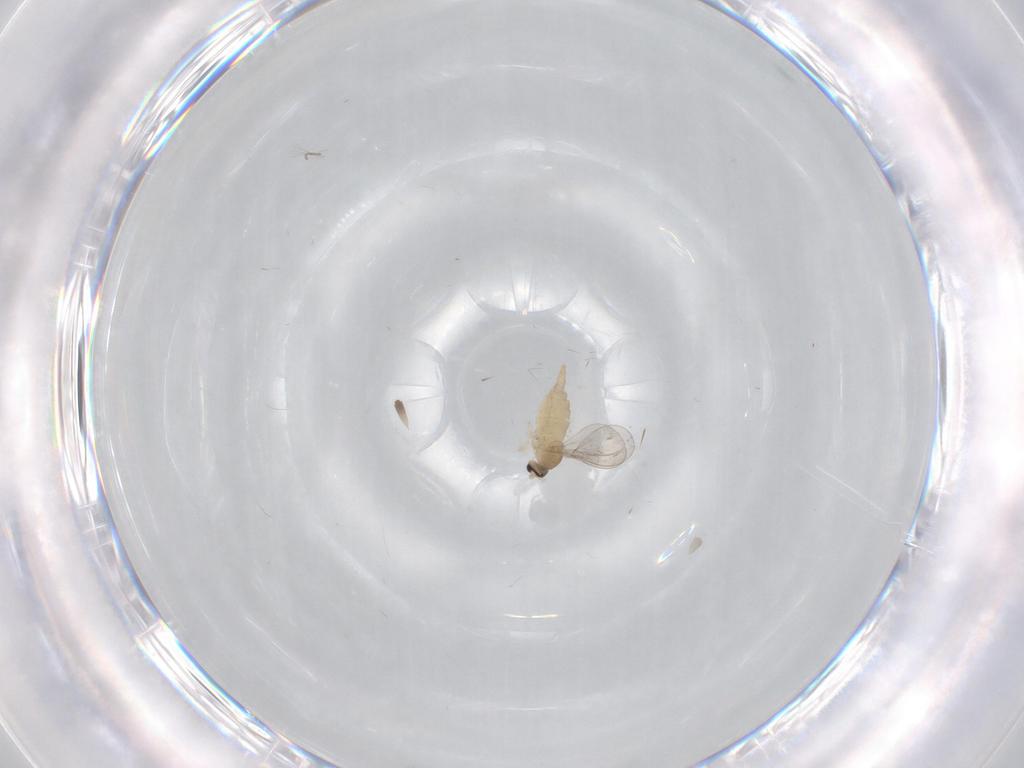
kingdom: Animalia
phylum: Arthropoda
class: Insecta
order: Diptera
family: Cecidomyiidae
